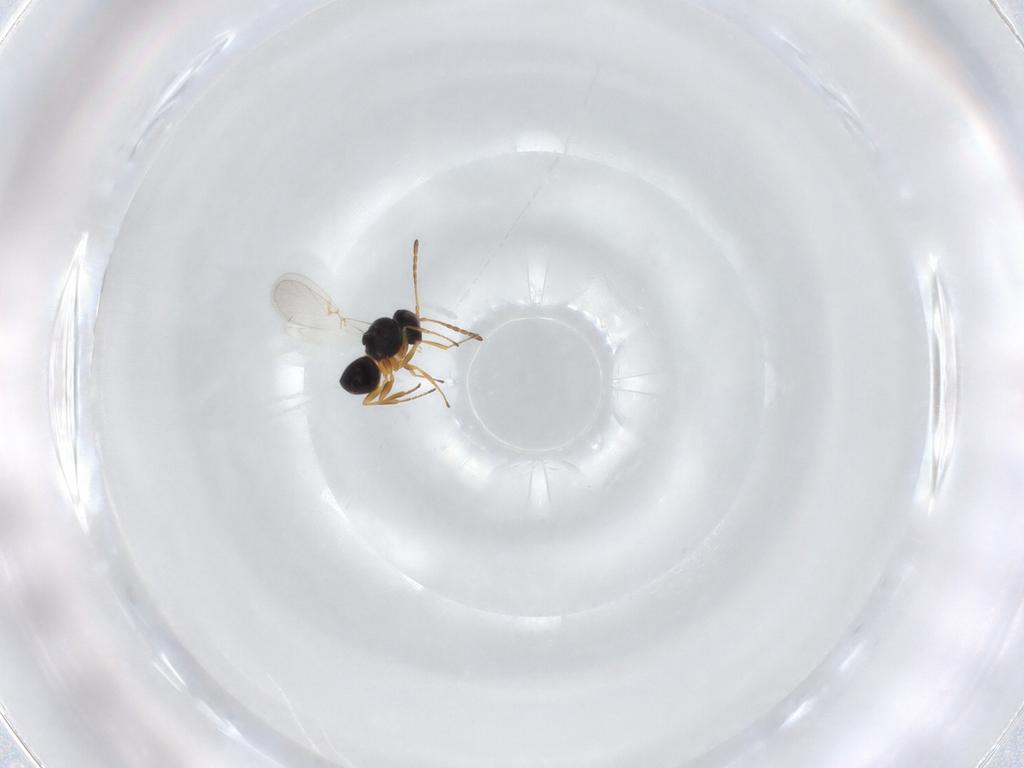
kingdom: Animalia
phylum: Arthropoda
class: Insecta
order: Hymenoptera
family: Figitidae
